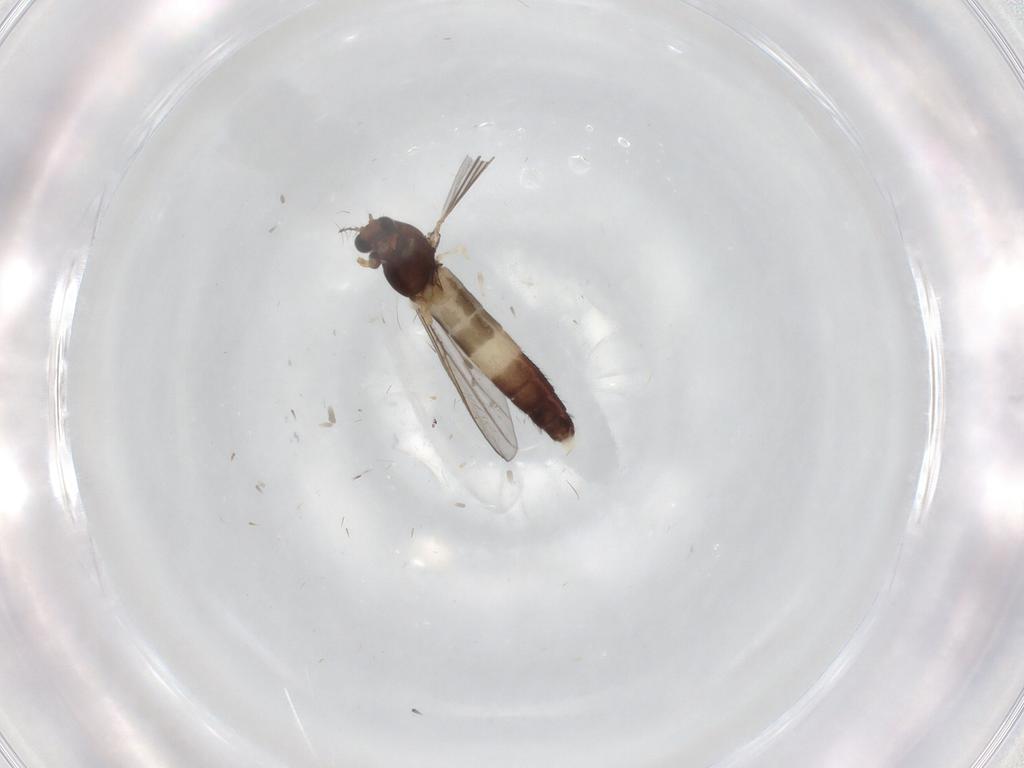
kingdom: Animalia
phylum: Arthropoda
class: Insecta
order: Diptera
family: Chironomidae
